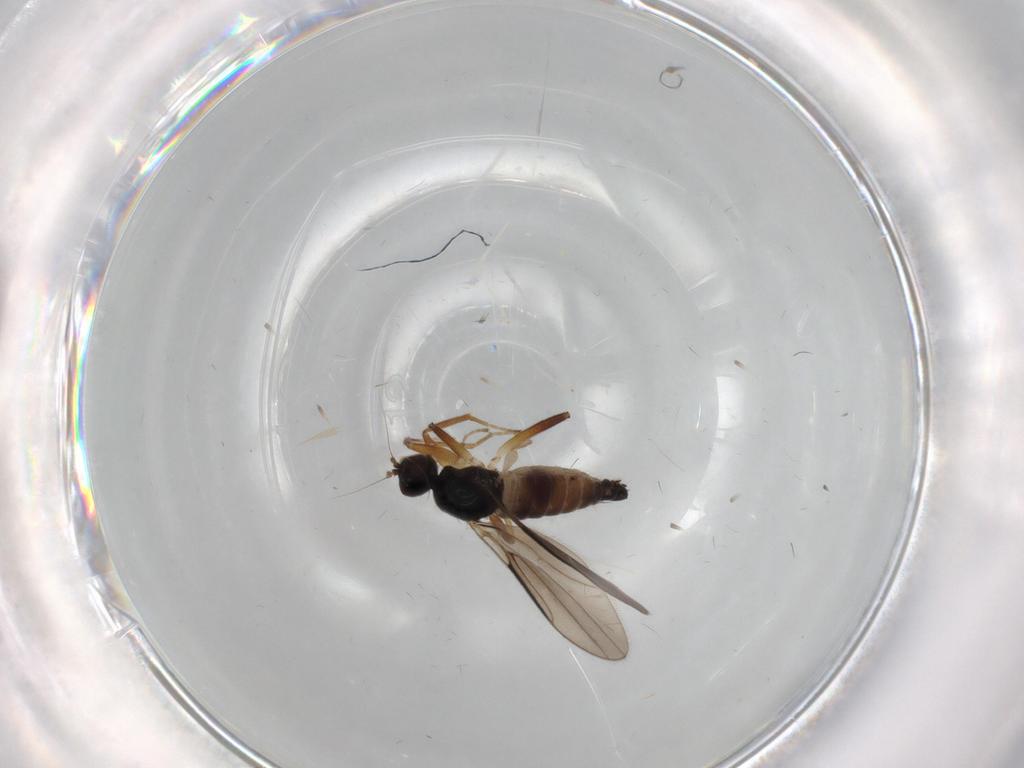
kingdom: Animalia
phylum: Arthropoda
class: Insecta
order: Diptera
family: Hybotidae
